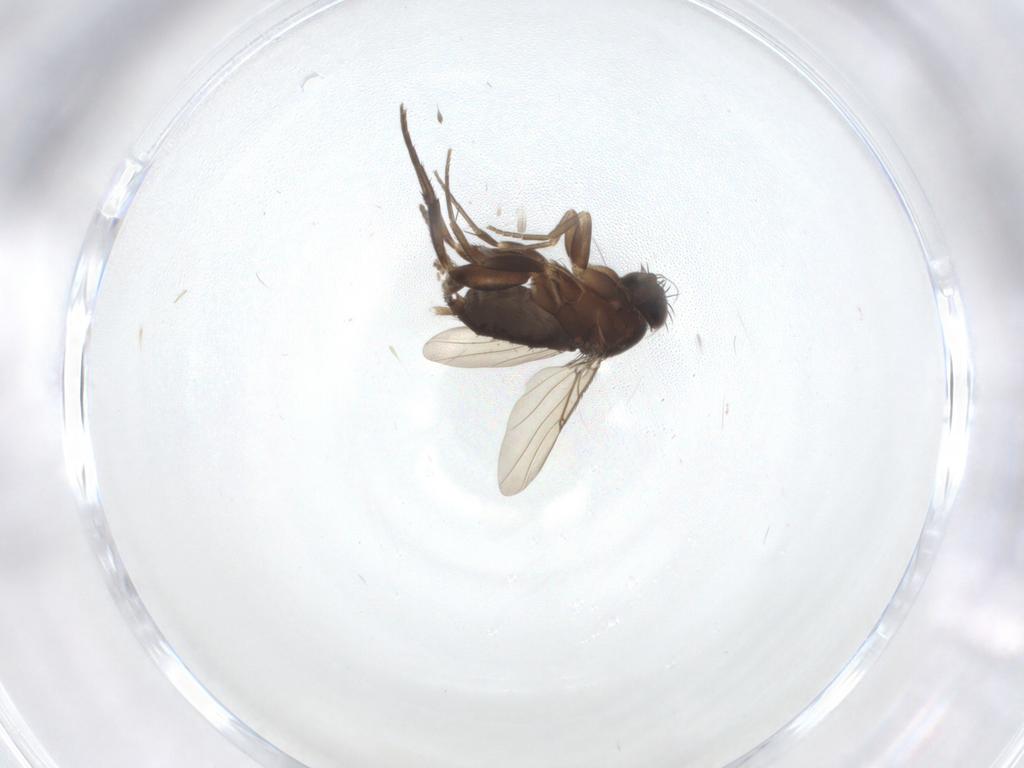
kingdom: Animalia
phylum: Arthropoda
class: Insecta
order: Diptera
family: Phoridae
